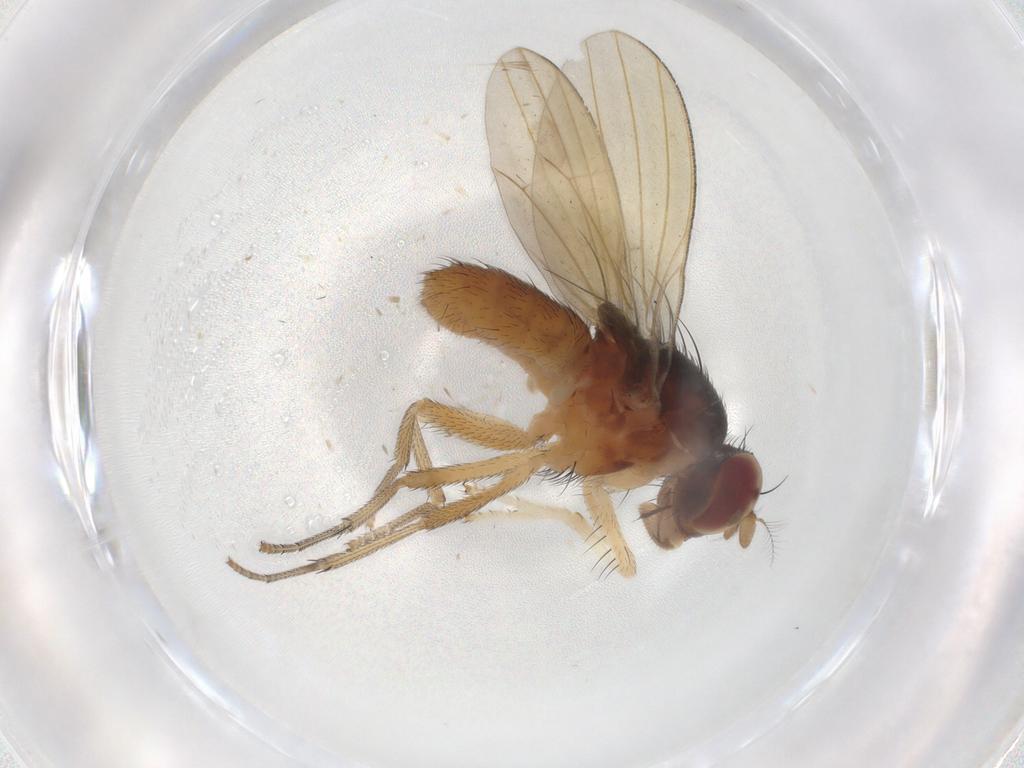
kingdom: Animalia
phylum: Arthropoda
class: Insecta
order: Diptera
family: Lauxaniidae
